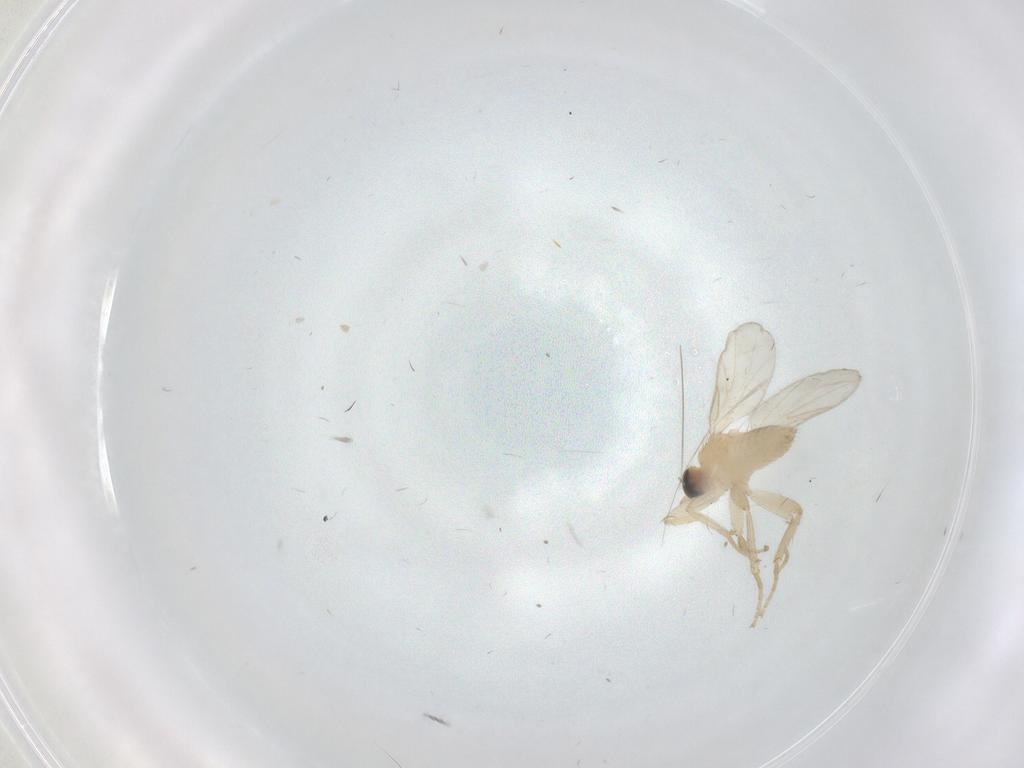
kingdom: Animalia
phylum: Arthropoda
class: Insecta
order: Diptera
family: Hybotidae
